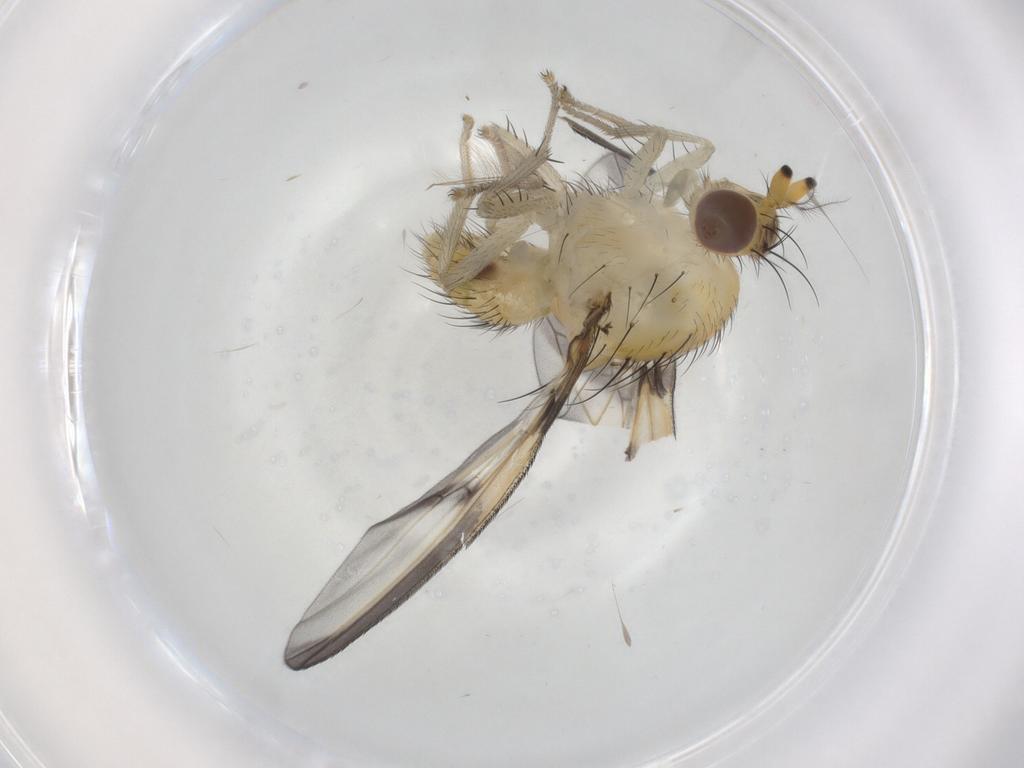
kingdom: Animalia
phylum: Arthropoda
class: Insecta
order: Diptera
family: Lauxaniidae
